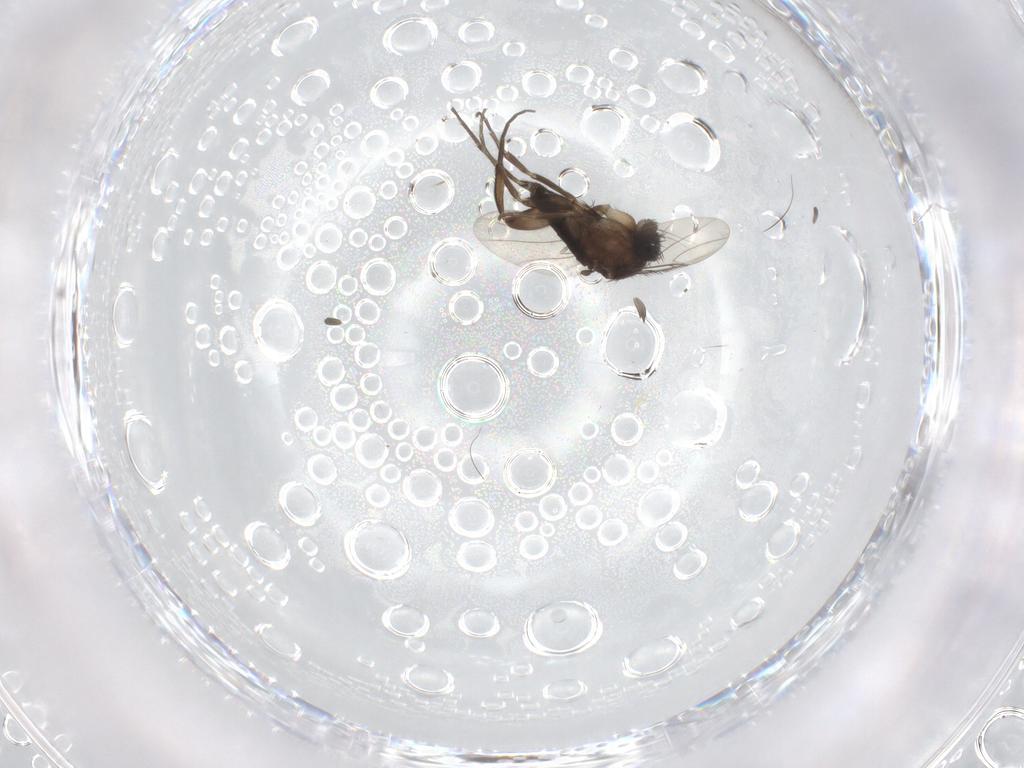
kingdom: Animalia
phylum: Arthropoda
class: Insecta
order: Diptera
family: Phoridae
